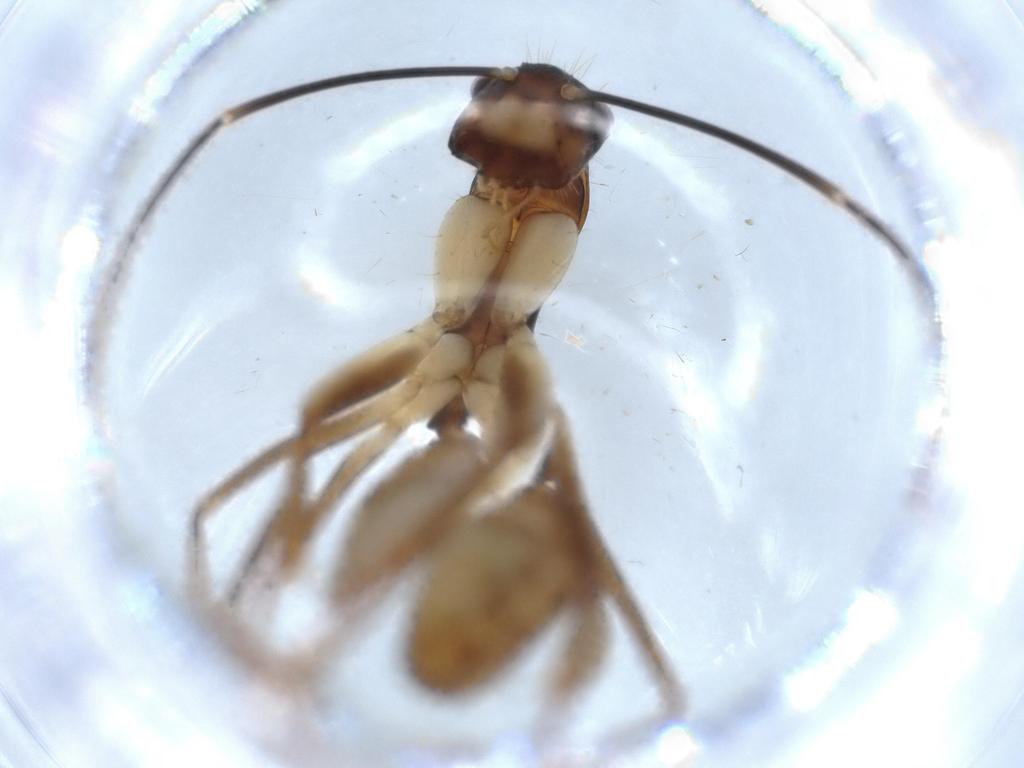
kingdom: Animalia
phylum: Arthropoda
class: Insecta
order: Hymenoptera
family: Formicidae
